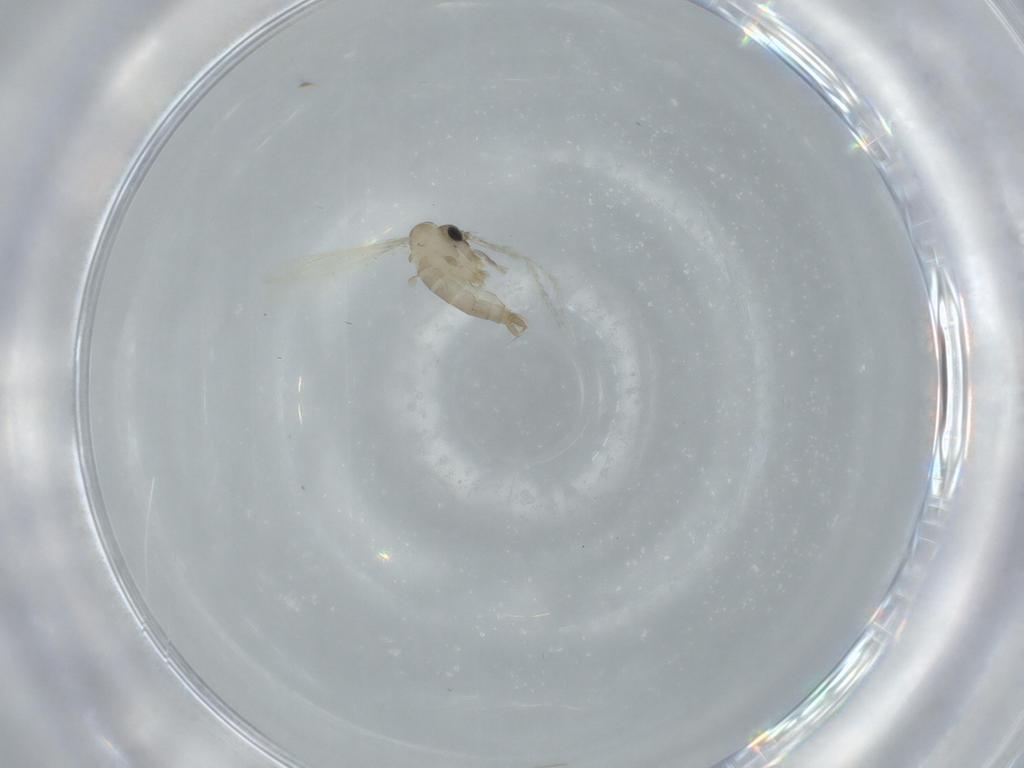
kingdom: Animalia
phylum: Arthropoda
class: Insecta
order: Diptera
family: Psychodidae
